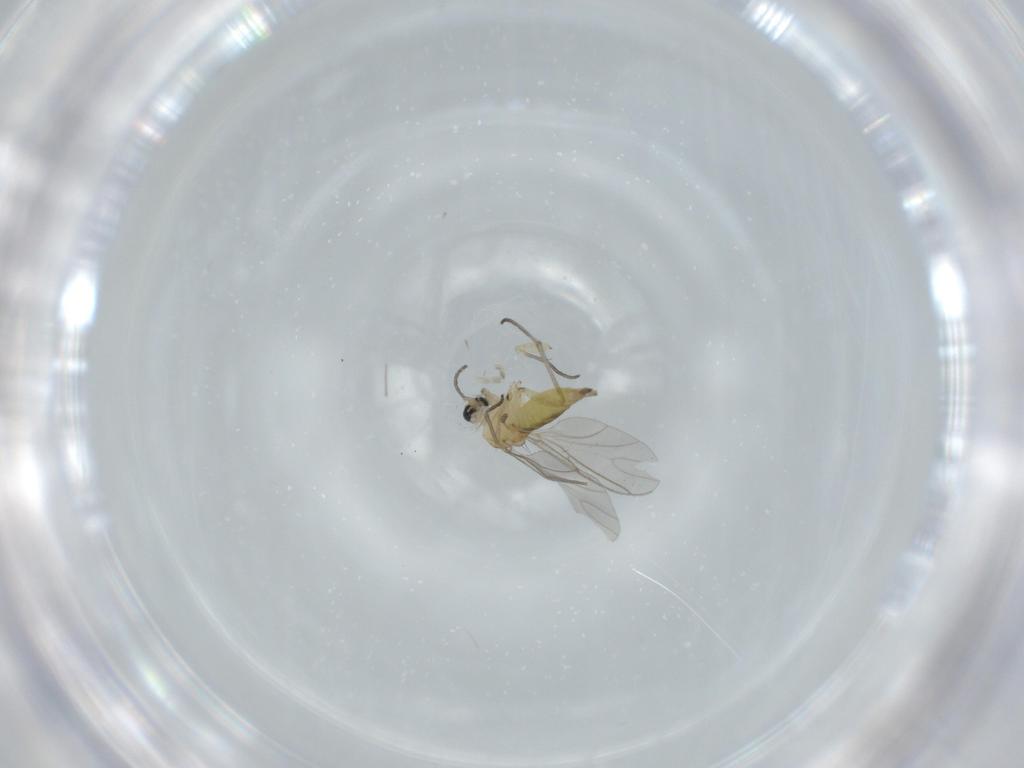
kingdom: Animalia
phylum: Arthropoda
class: Insecta
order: Diptera
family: Sciaridae
